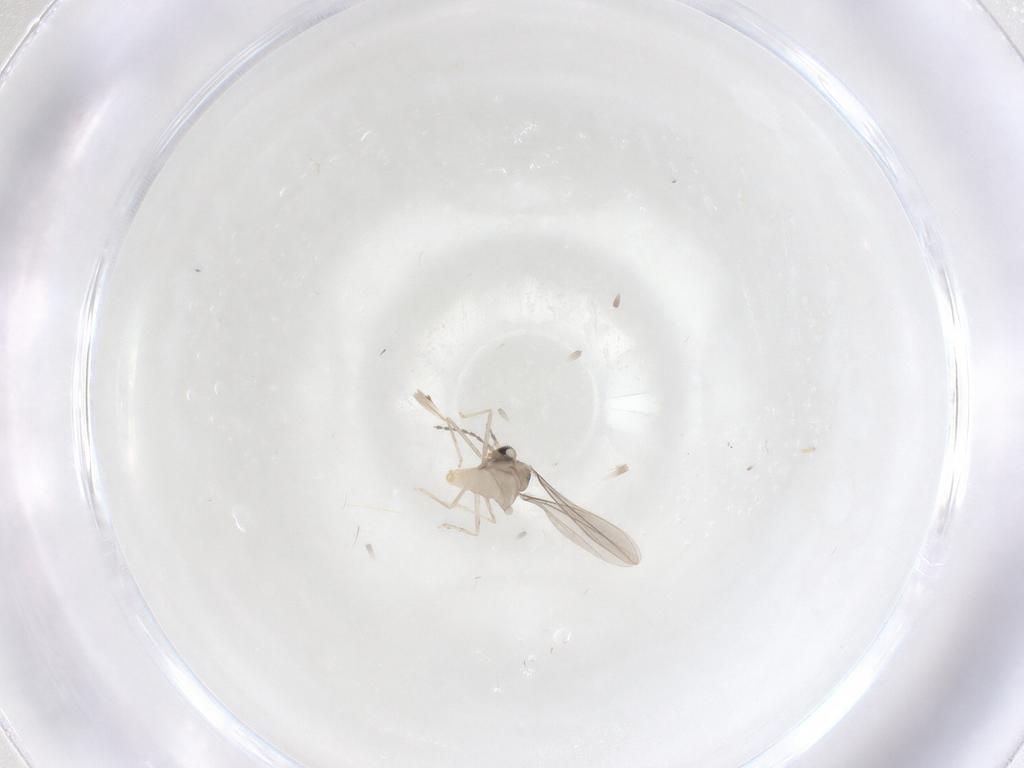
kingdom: Animalia
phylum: Arthropoda
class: Insecta
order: Diptera
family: Cecidomyiidae
